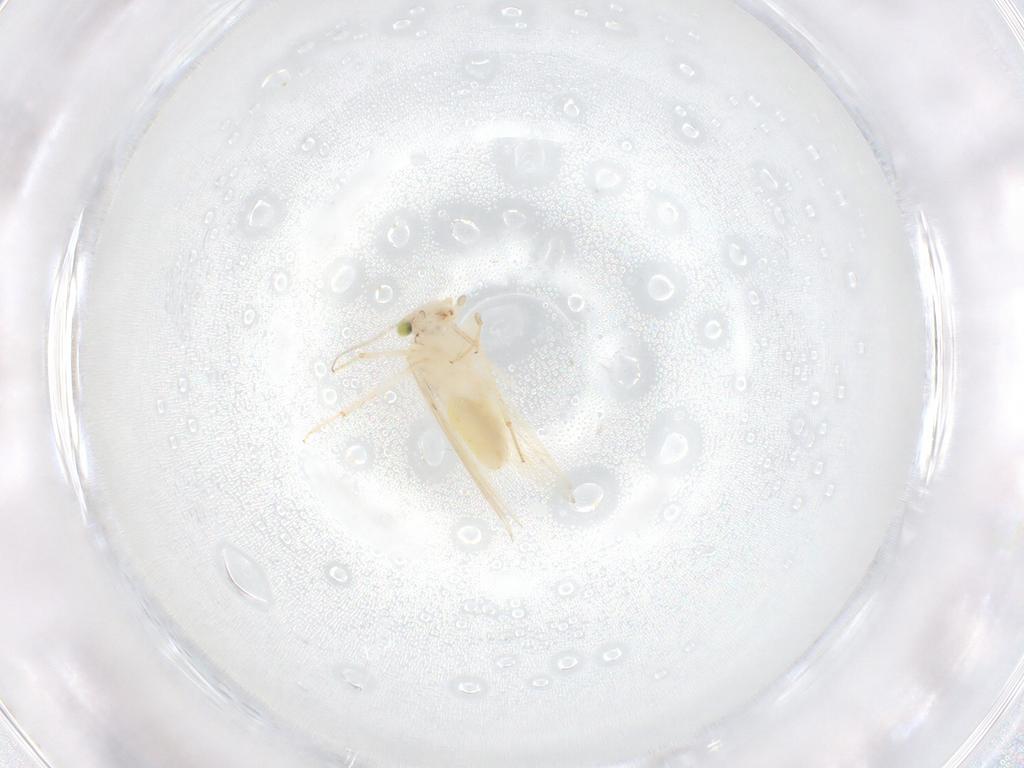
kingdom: Animalia
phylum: Arthropoda
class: Insecta
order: Psocodea
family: Lepidopsocidae
